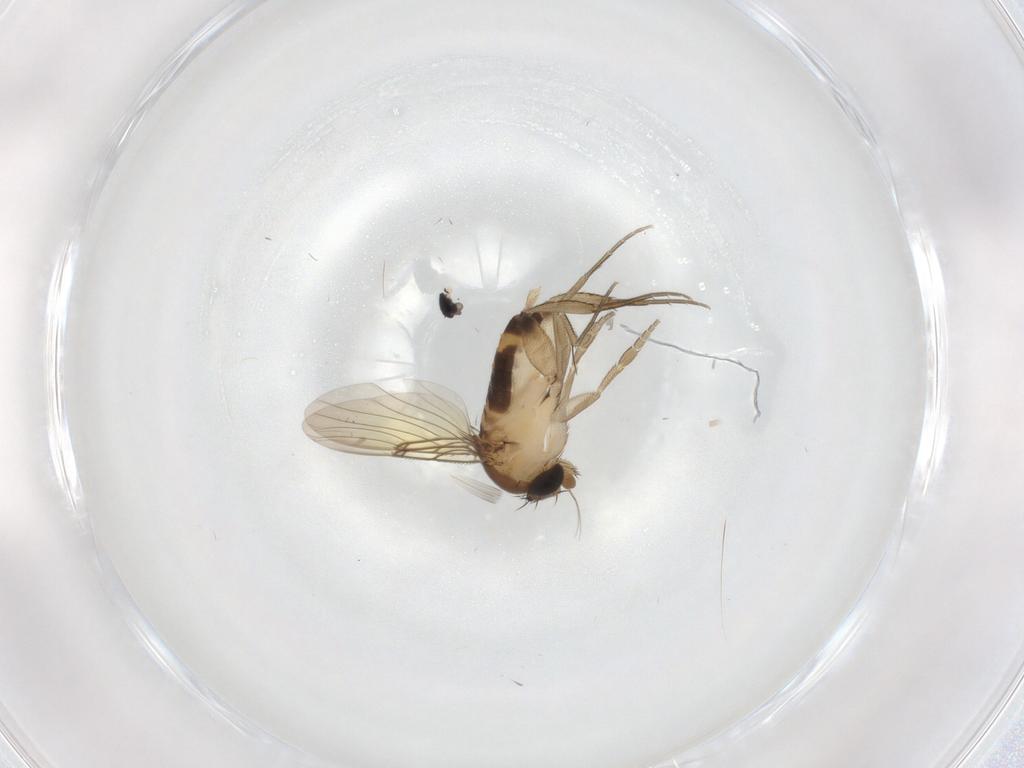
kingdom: Animalia
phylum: Arthropoda
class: Insecta
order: Diptera
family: Sciaridae
